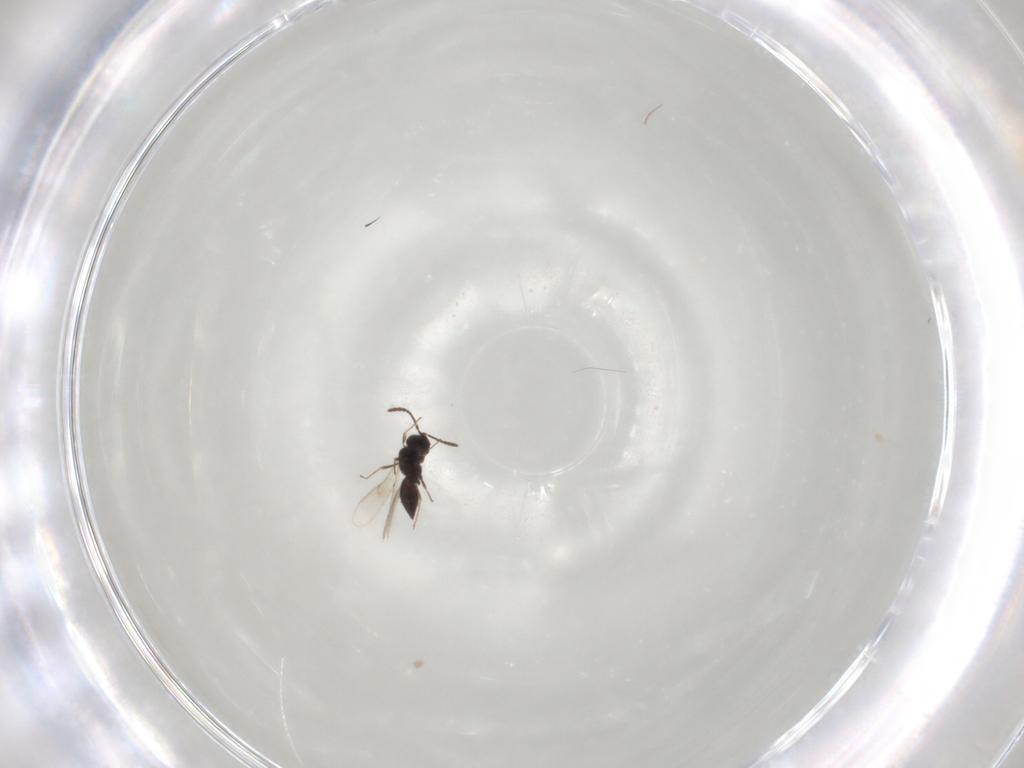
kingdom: Animalia
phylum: Arthropoda
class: Insecta
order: Hymenoptera
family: Scelionidae
